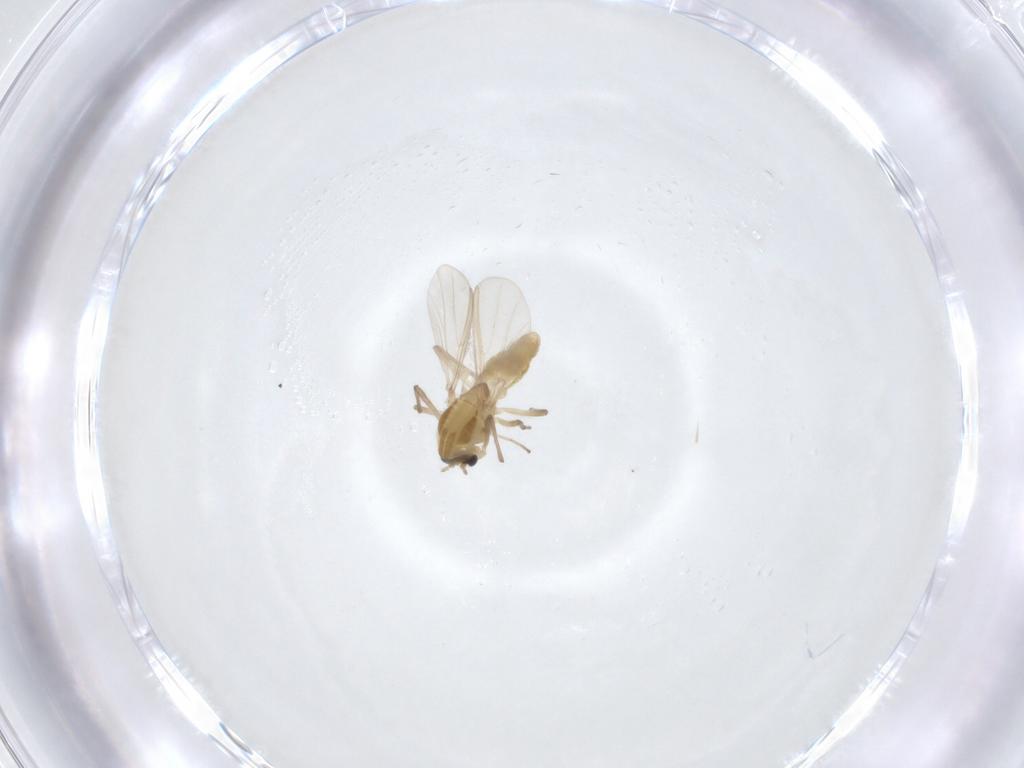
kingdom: Animalia
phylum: Arthropoda
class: Insecta
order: Diptera
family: Chironomidae
